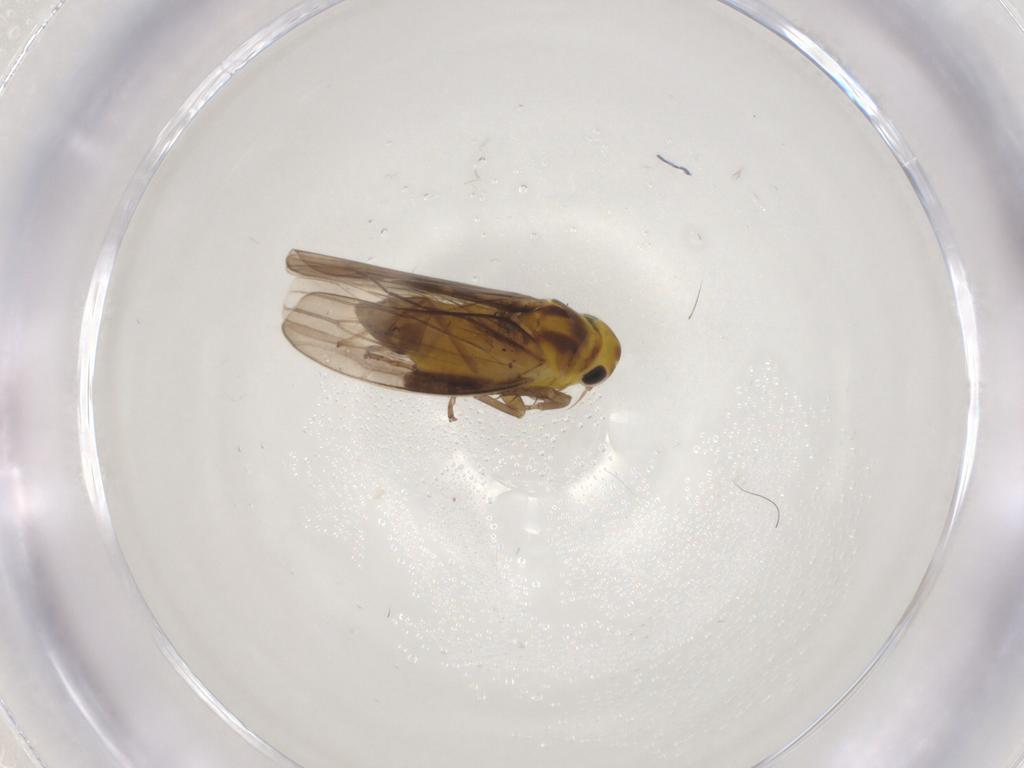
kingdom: Animalia
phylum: Arthropoda
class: Insecta
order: Hemiptera
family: Cicadellidae
